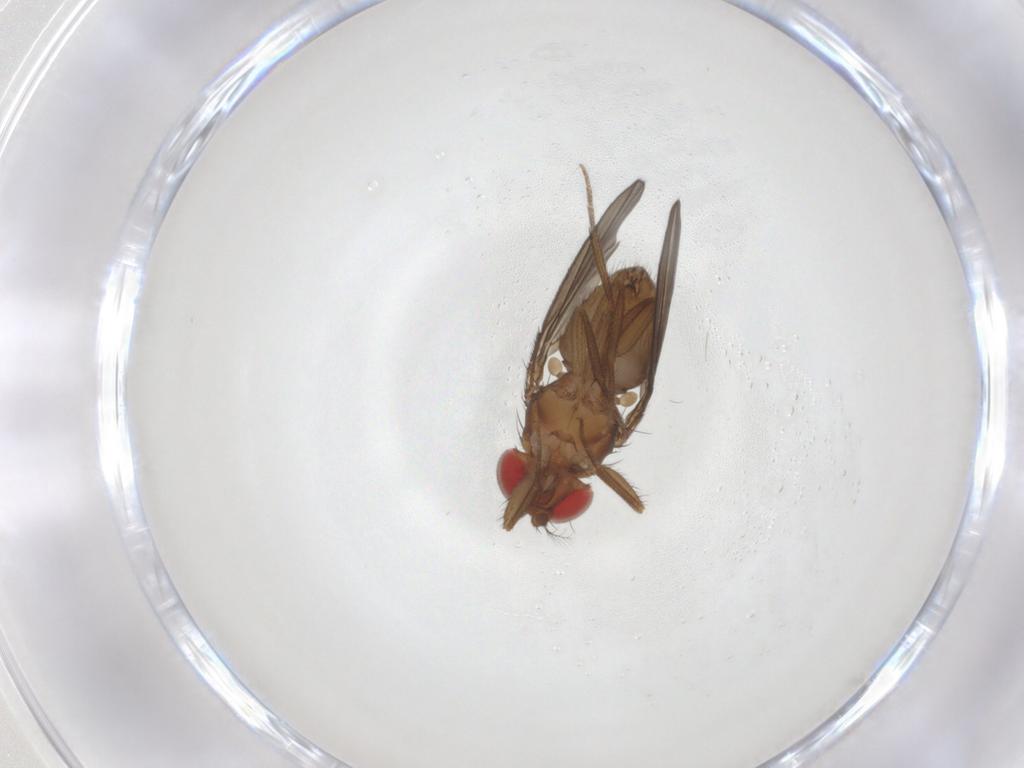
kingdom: Animalia
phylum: Arthropoda
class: Insecta
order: Diptera
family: Drosophilidae
